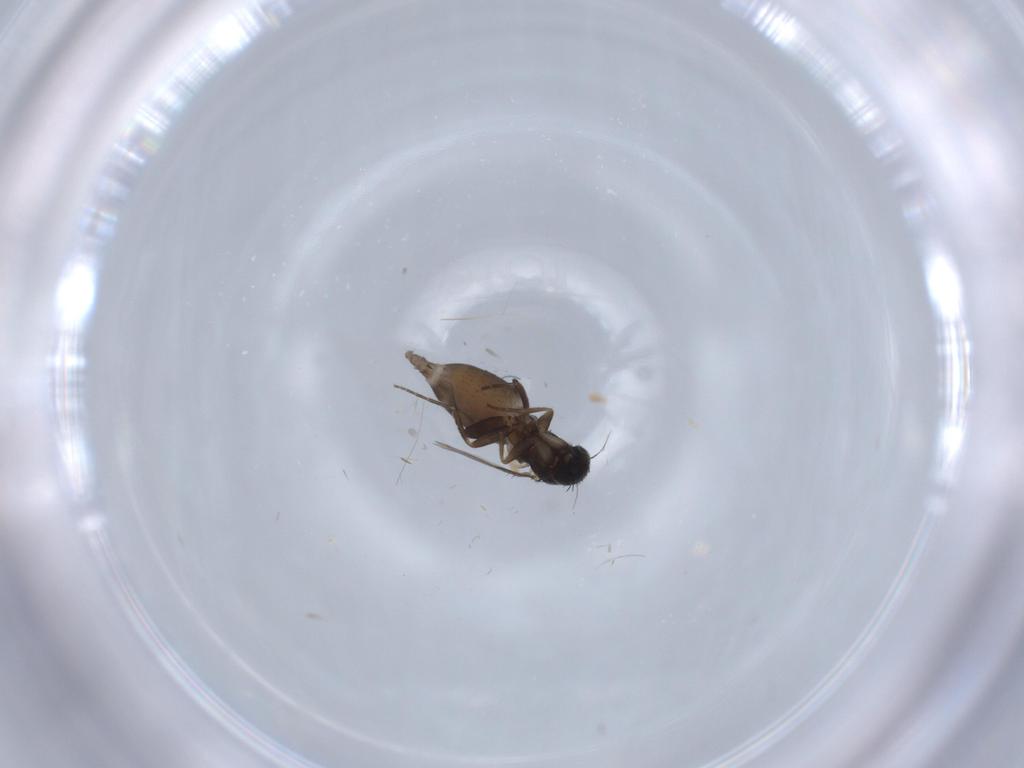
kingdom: Animalia
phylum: Arthropoda
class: Insecta
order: Diptera
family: Phoridae
